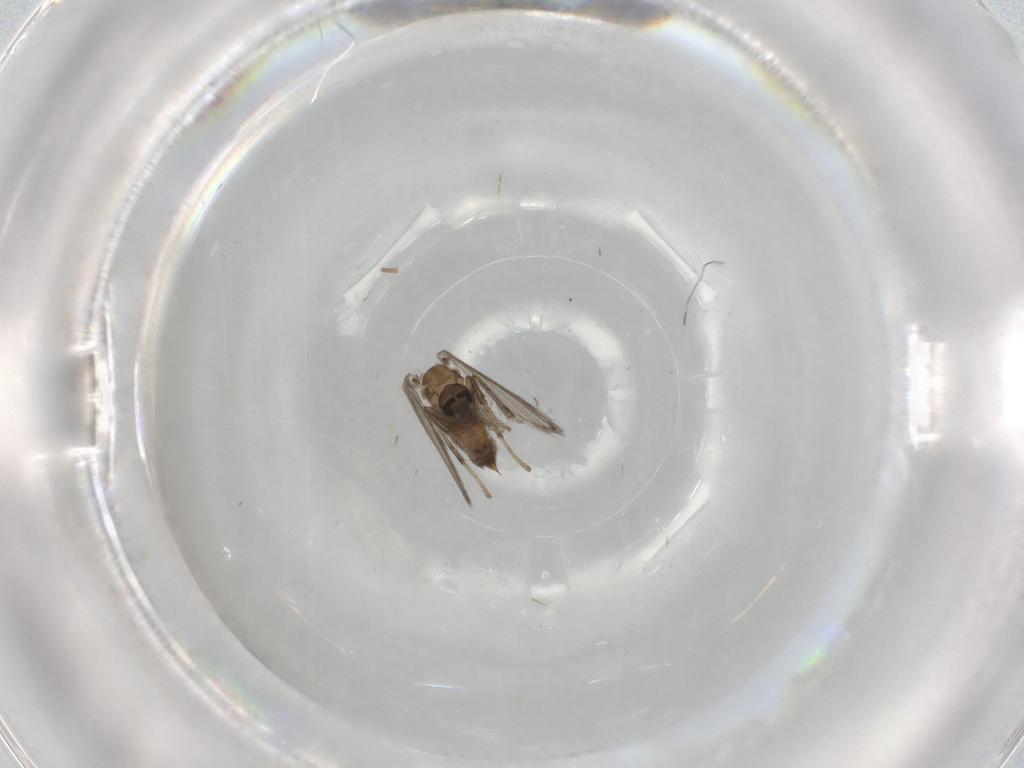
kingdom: Animalia
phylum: Arthropoda
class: Insecta
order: Diptera
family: Psychodidae
